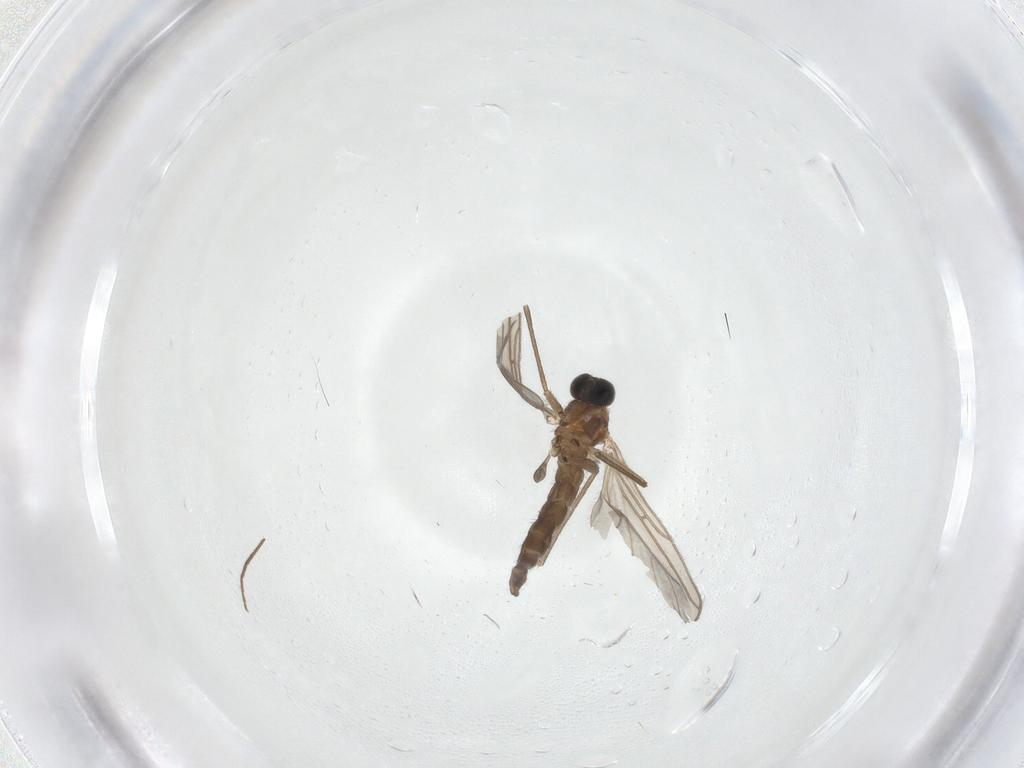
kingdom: Animalia
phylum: Arthropoda
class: Insecta
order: Diptera
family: Sciaridae
